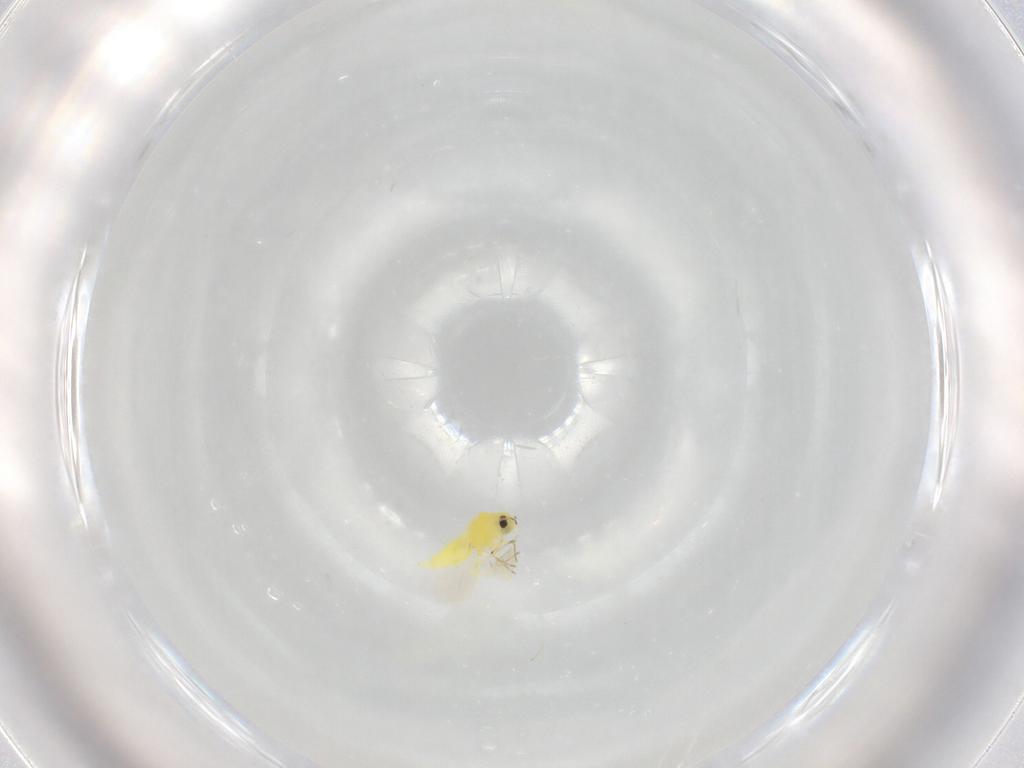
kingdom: Animalia
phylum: Arthropoda
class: Insecta
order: Hemiptera
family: Aleyrodidae
